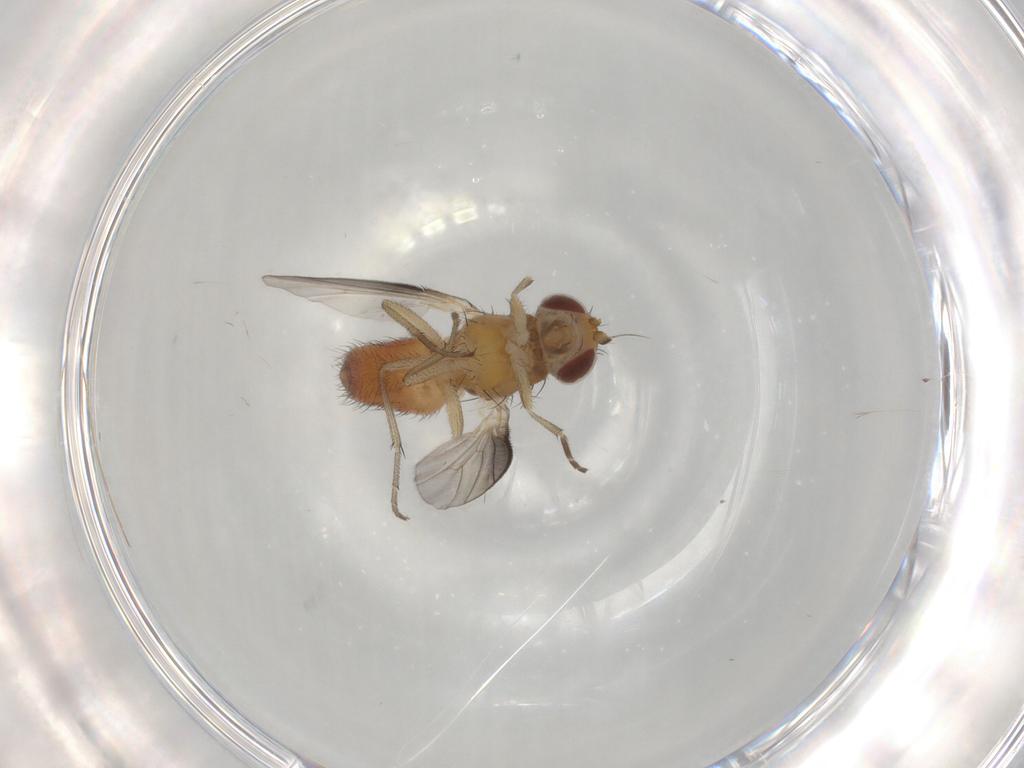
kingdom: Animalia
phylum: Arthropoda
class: Insecta
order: Diptera
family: Heleomyzidae
